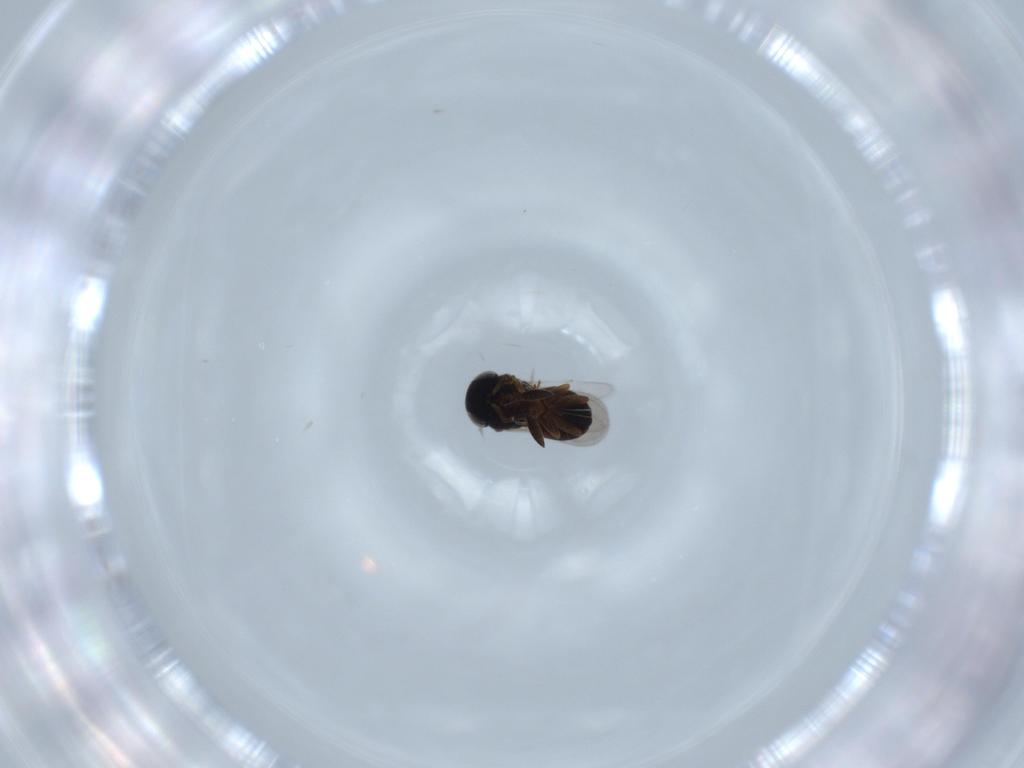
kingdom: Animalia
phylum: Arthropoda
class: Insecta
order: Hymenoptera
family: Scelionidae
